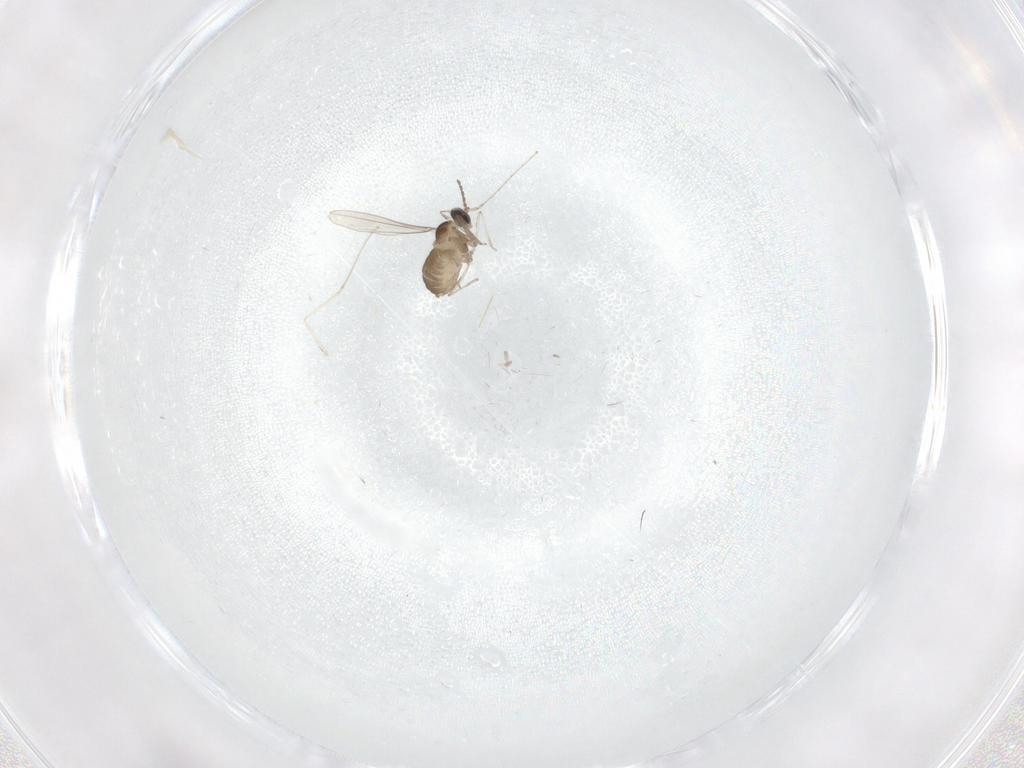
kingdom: Animalia
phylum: Arthropoda
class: Insecta
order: Diptera
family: Cecidomyiidae
